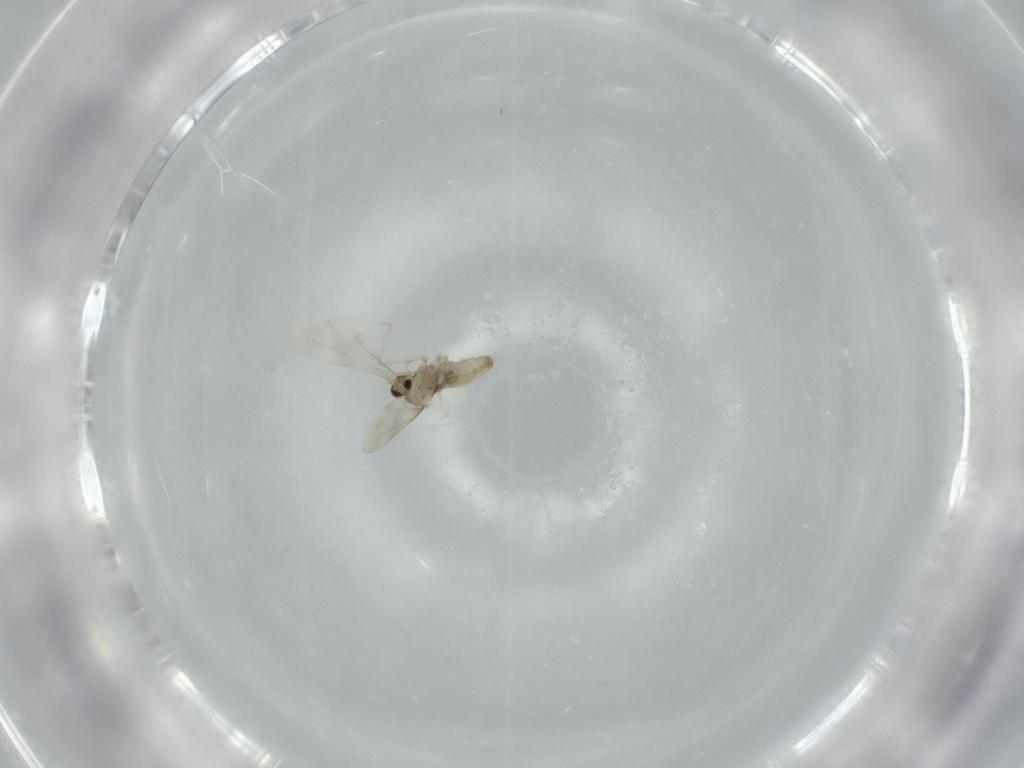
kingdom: Animalia
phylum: Arthropoda
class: Insecta
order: Diptera
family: Cecidomyiidae
